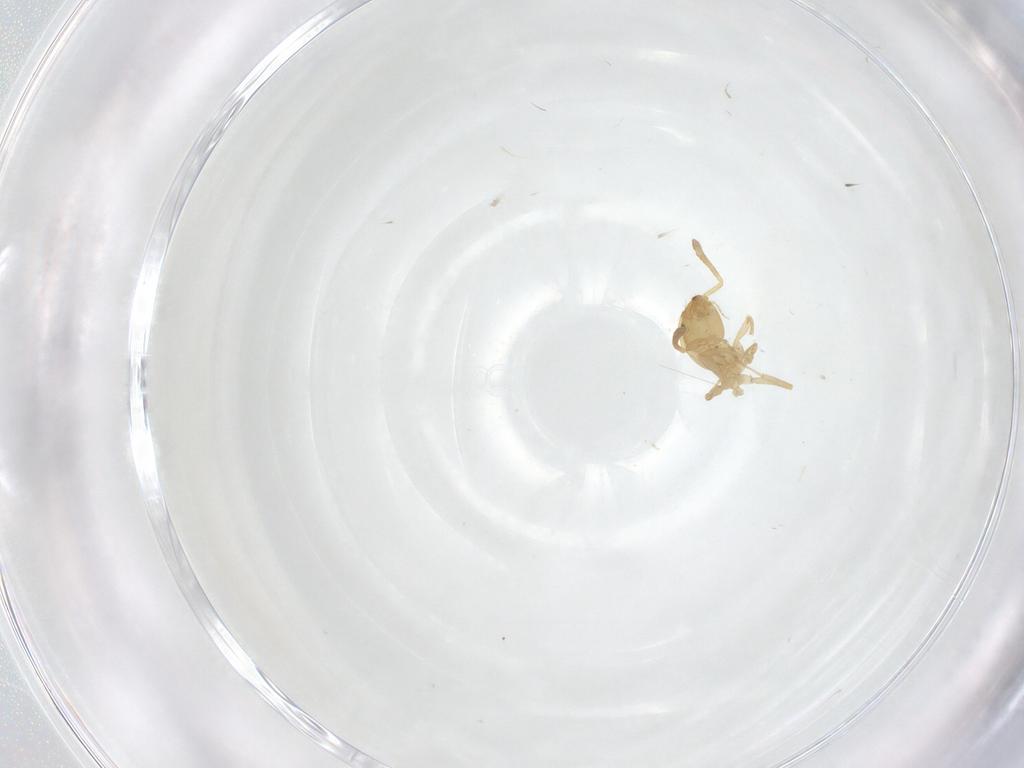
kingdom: Animalia
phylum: Arthropoda
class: Insecta
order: Hymenoptera
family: Formicidae
